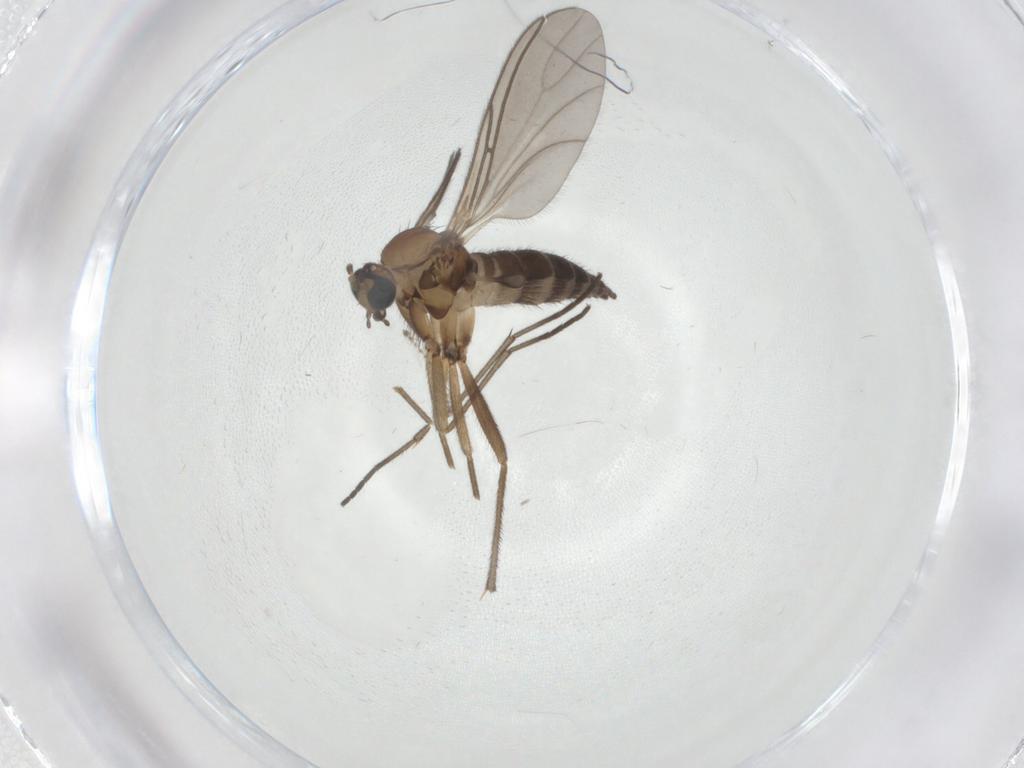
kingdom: Animalia
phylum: Arthropoda
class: Insecta
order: Diptera
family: Sciaridae
